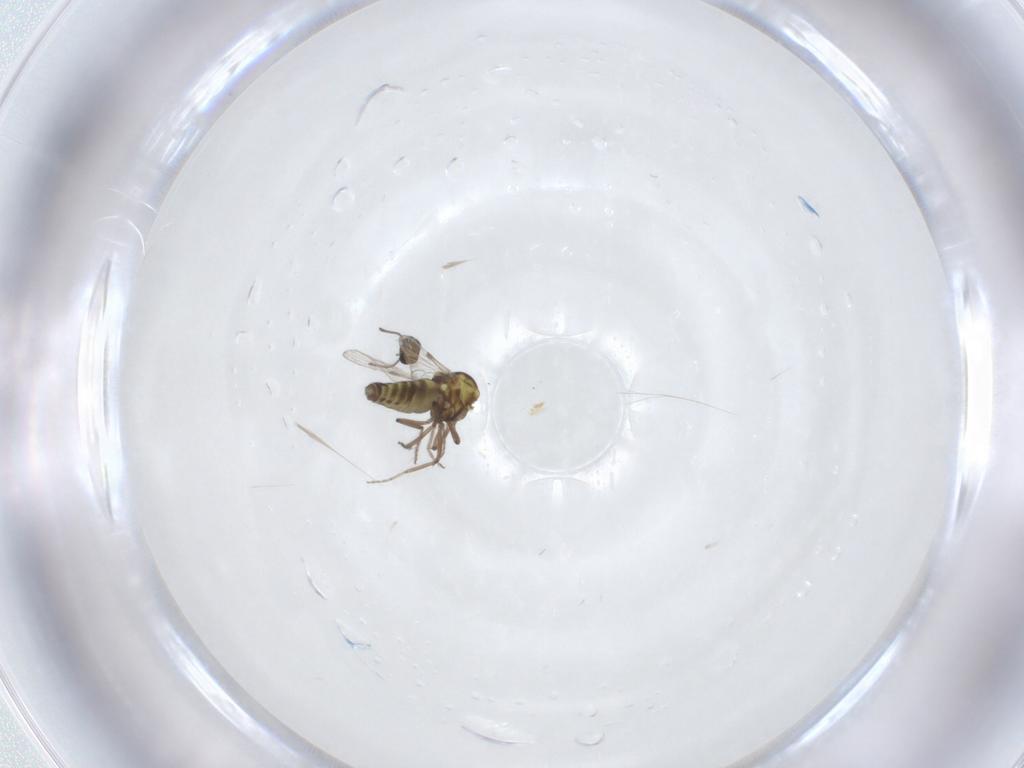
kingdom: Animalia
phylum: Arthropoda
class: Insecta
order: Diptera
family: Ceratopogonidae
